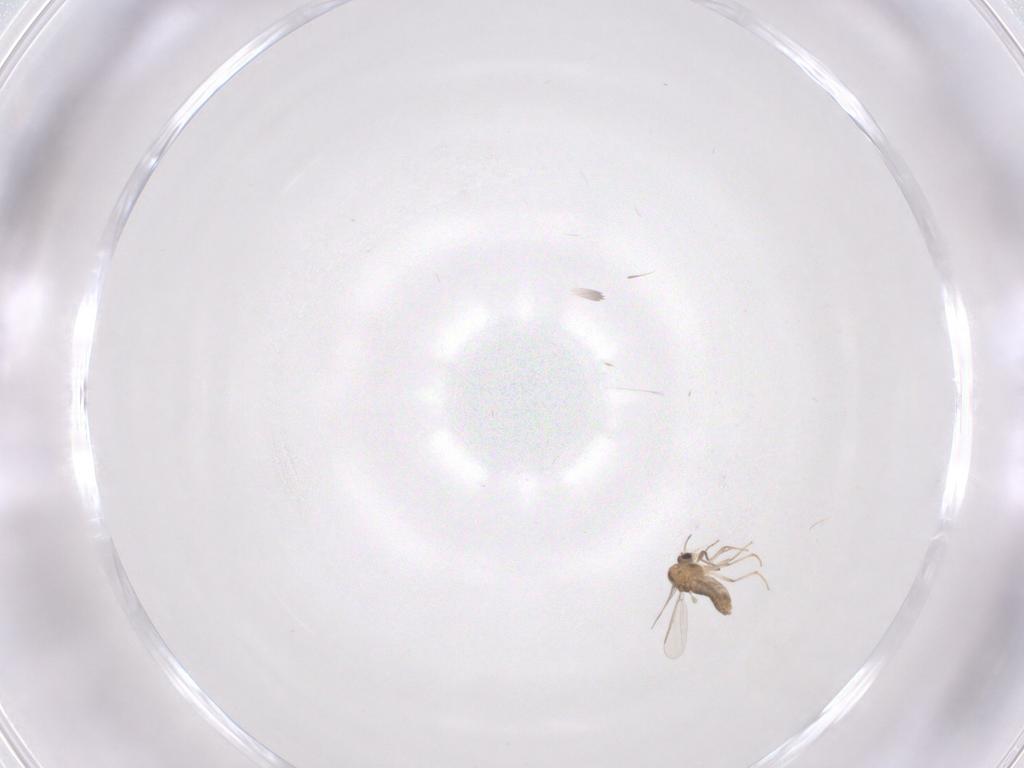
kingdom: Animalia
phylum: Arthropoda
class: Insecta
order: Diptera
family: Chironomidae
